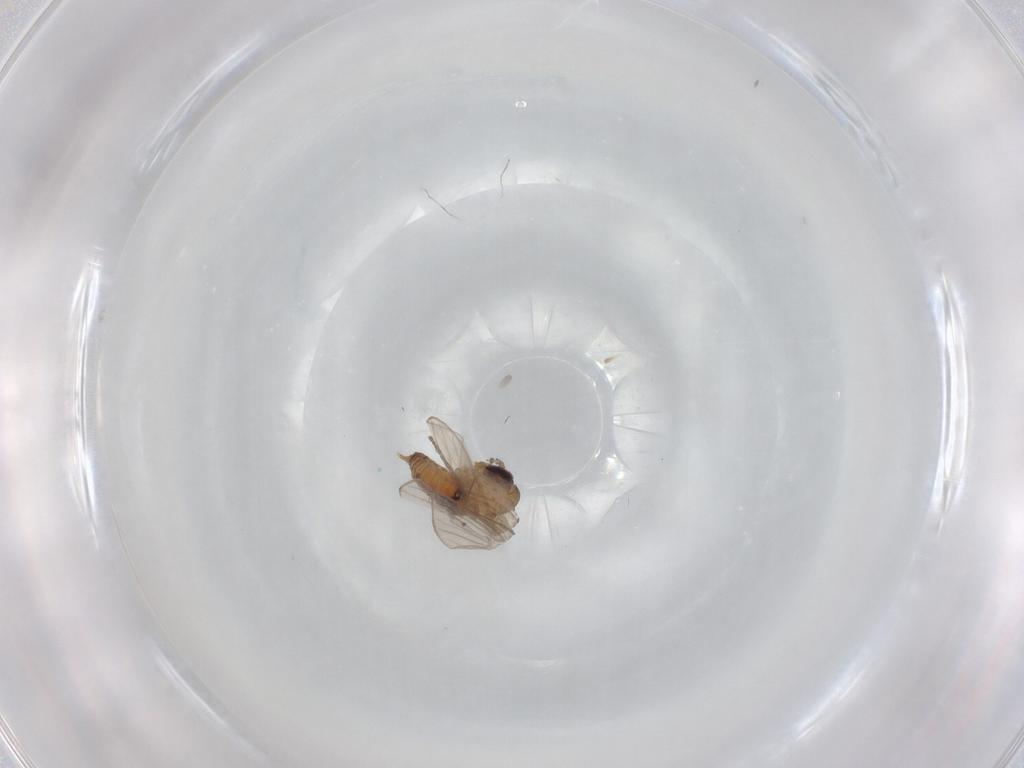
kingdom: Animalia
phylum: Arthropoda
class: Insecta
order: Diptera
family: Psychodidae
